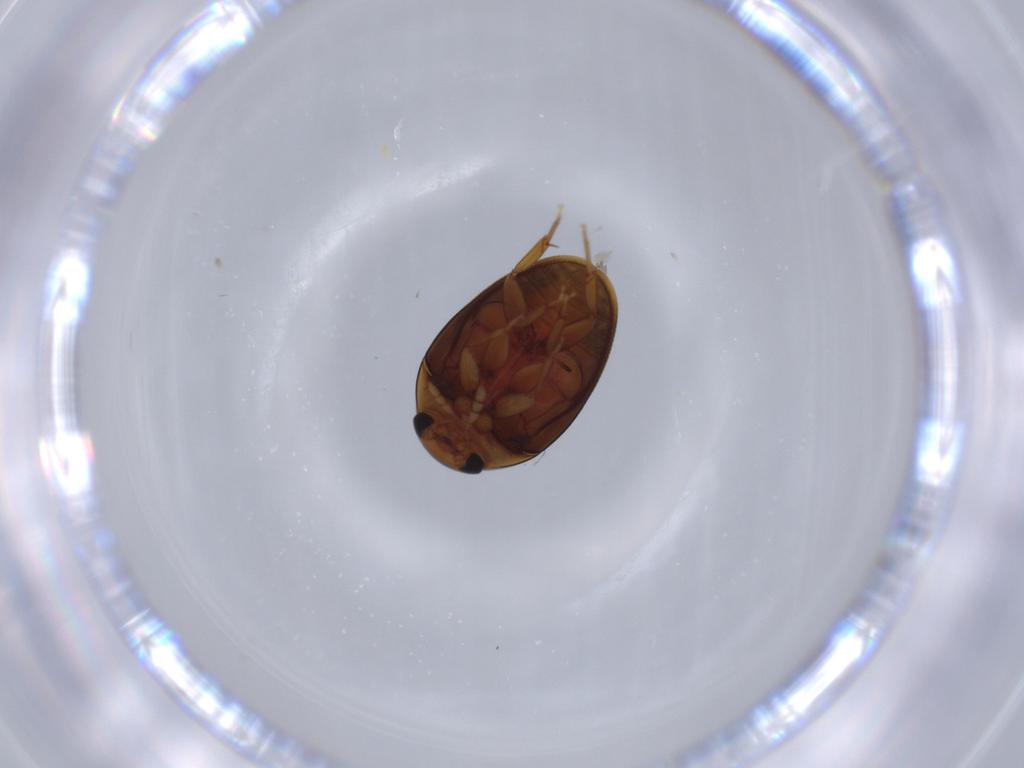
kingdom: Animalia
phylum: Arthropoda
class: Insecta
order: Coleoptera
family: Phalacridae
